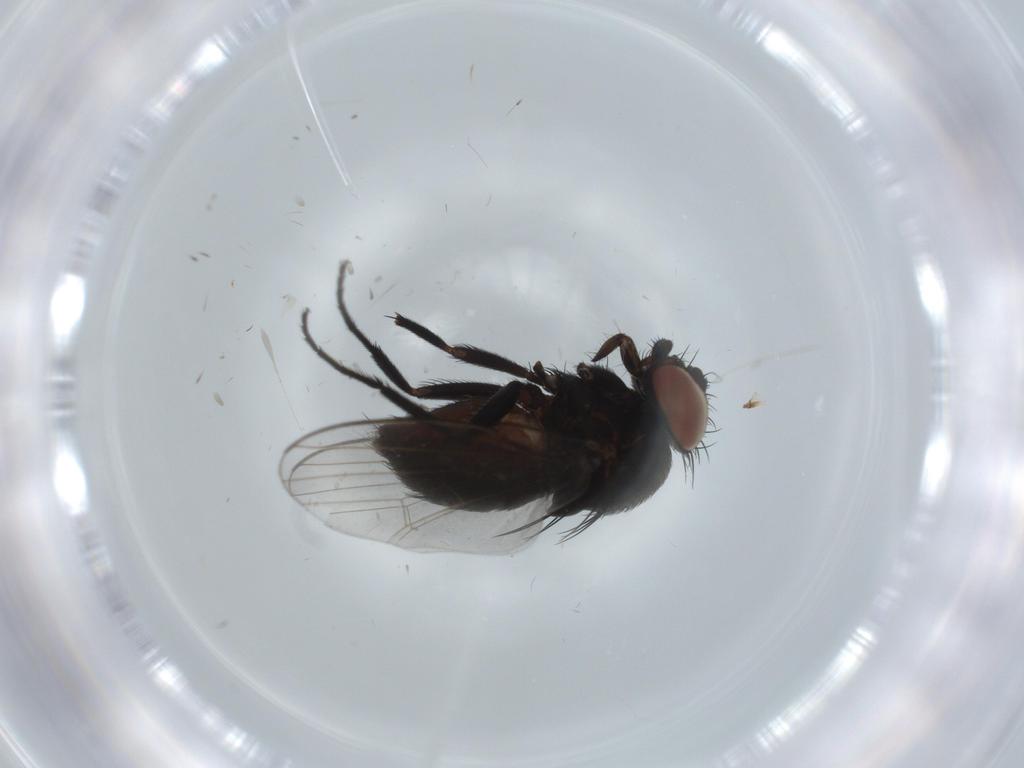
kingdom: Animalia
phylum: Arthropoda
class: Insecta
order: Diptera
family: Milichiidae
